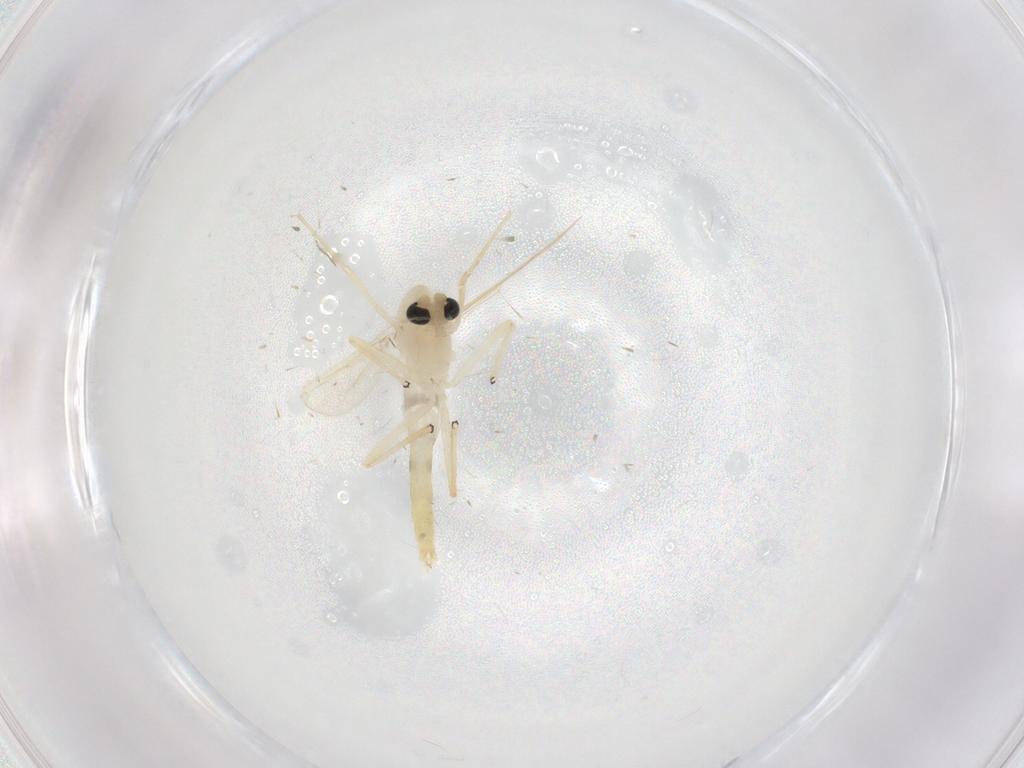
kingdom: Animalia
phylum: Arthropoda
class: Insecta
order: Diptera
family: Chironomidae
